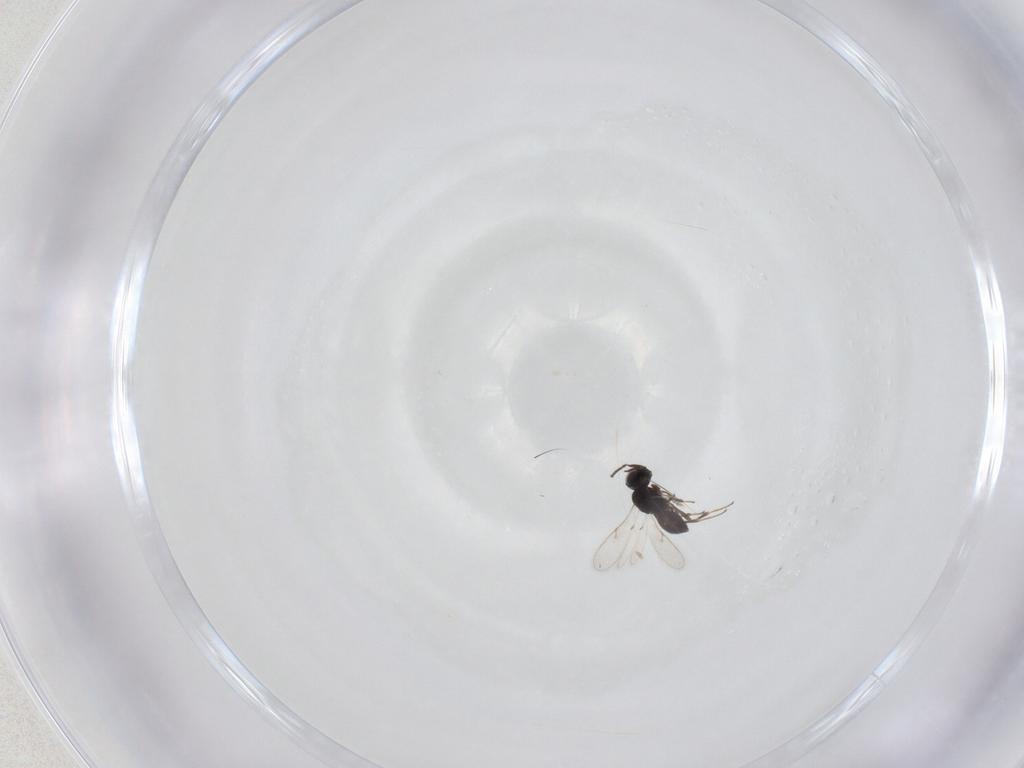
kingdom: Animalia
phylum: Arthropoda
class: Insecta
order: Hymenoptera
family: Scelionidae
